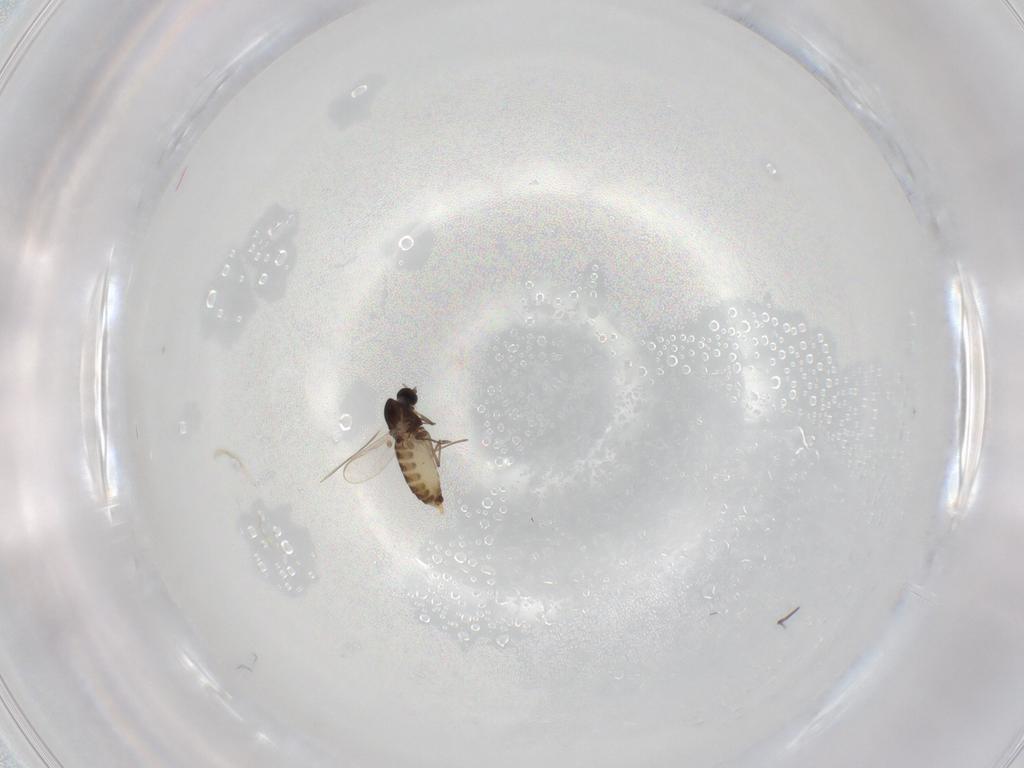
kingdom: Animalia
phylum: Arthropoda
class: Insecta
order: Diptera
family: Chironomidae
